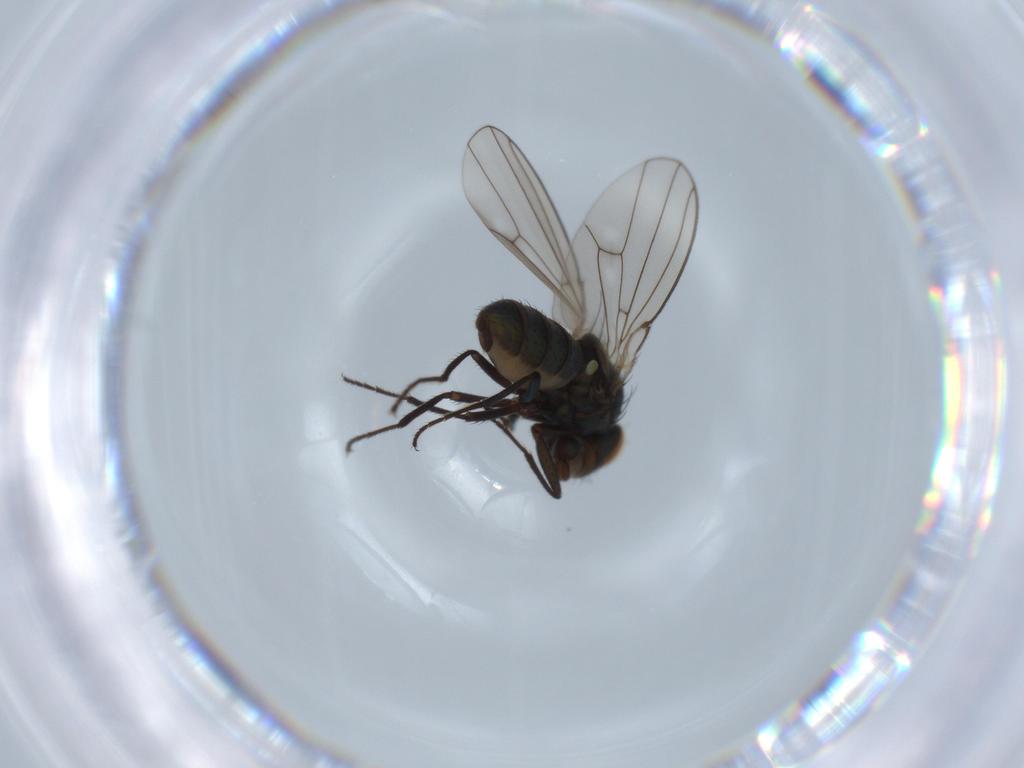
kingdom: Animalia
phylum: Arthropoda
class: Insecta
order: Diptera
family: Ephydridae
